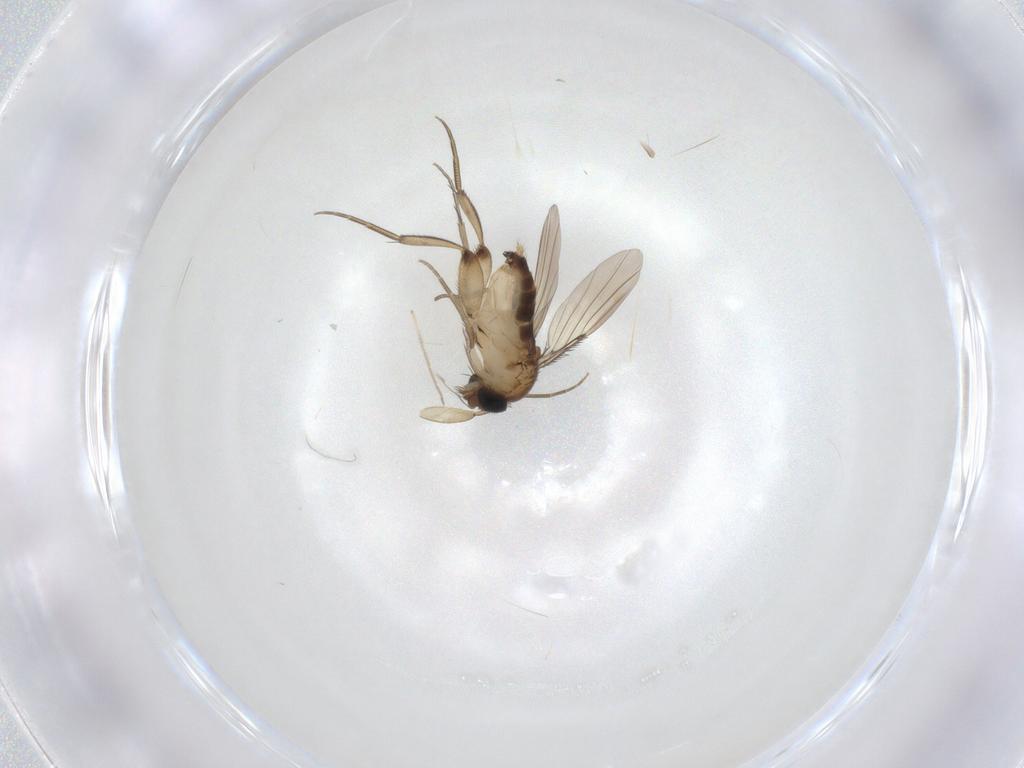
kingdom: Animalia
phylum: Arthropoda
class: Insecta
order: Diptera
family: Phoridae
